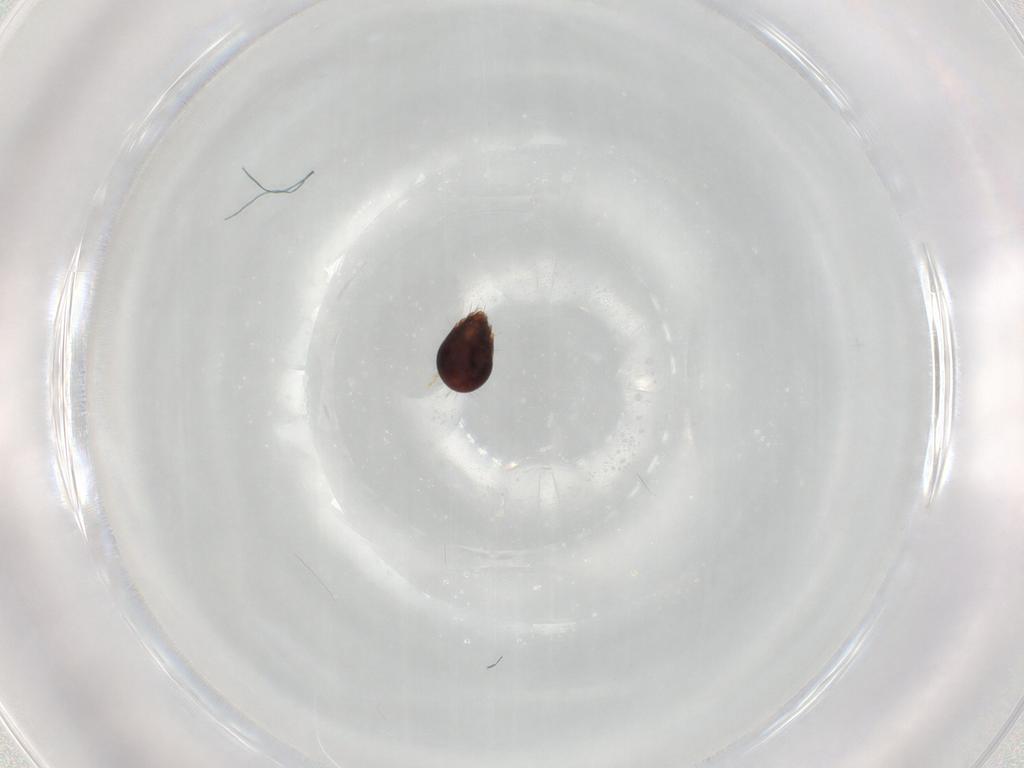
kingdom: Animalia
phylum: Arthropoda
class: Arachnida
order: Sarcoptiformes
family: Humerobatidae
